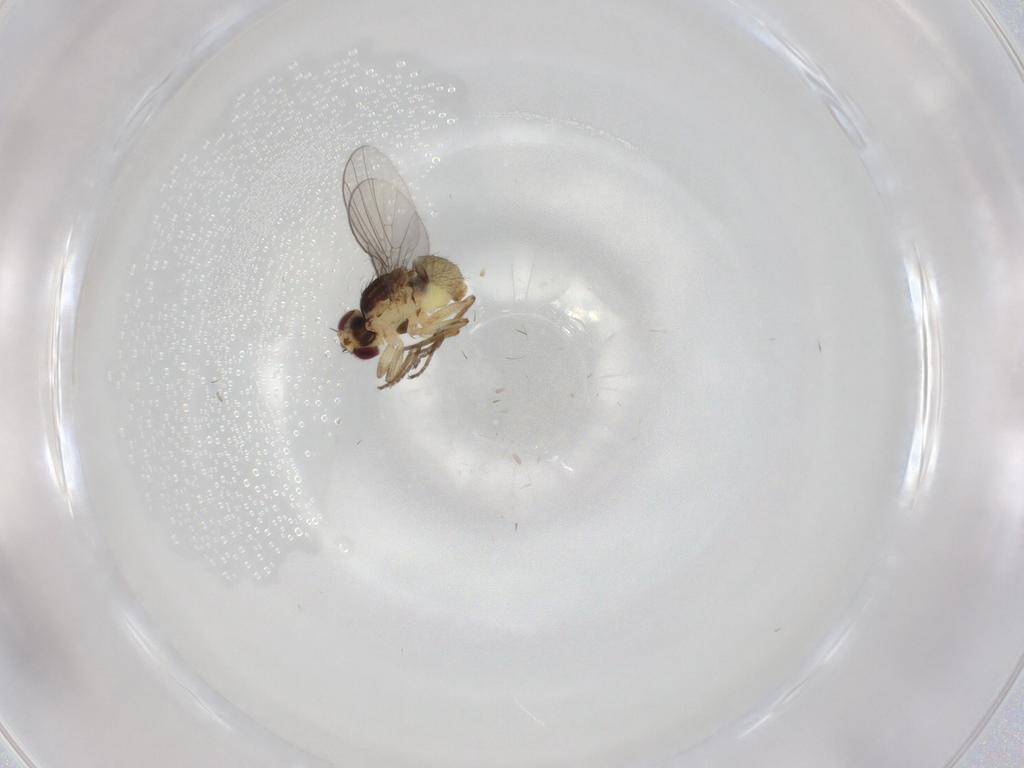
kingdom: Animalia
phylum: Arthropoda
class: Insecta
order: Diptera
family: Agromyzidae
